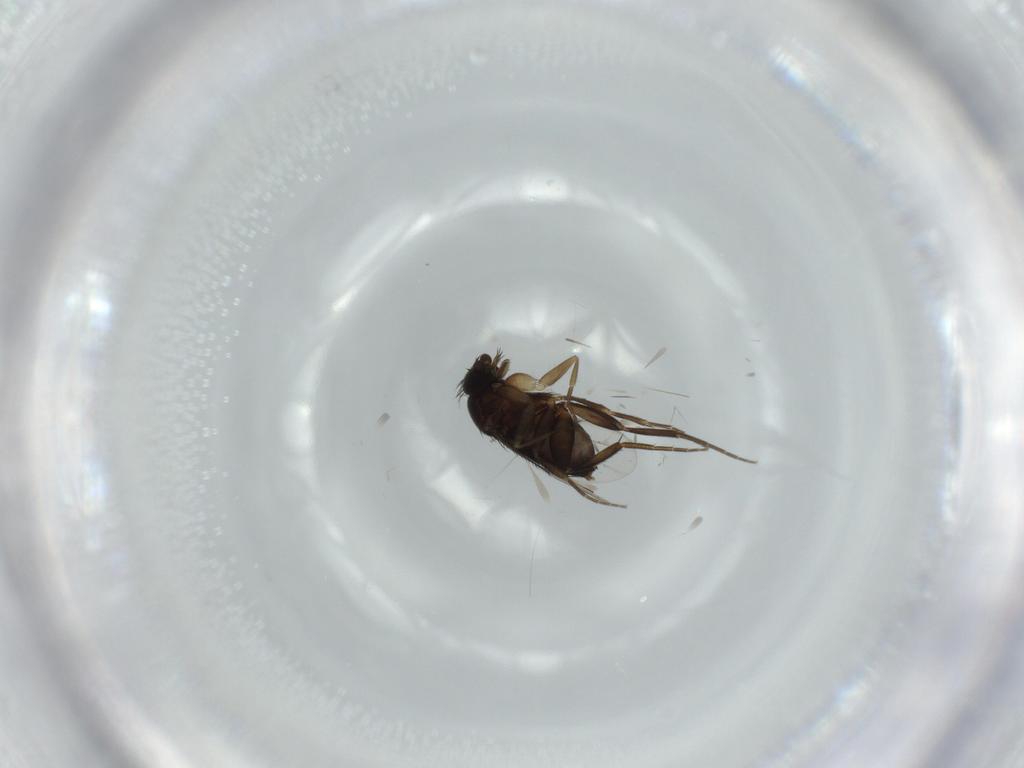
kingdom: Animalia
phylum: Arthropoda
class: Insecta
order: Diptera
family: Phoridae
